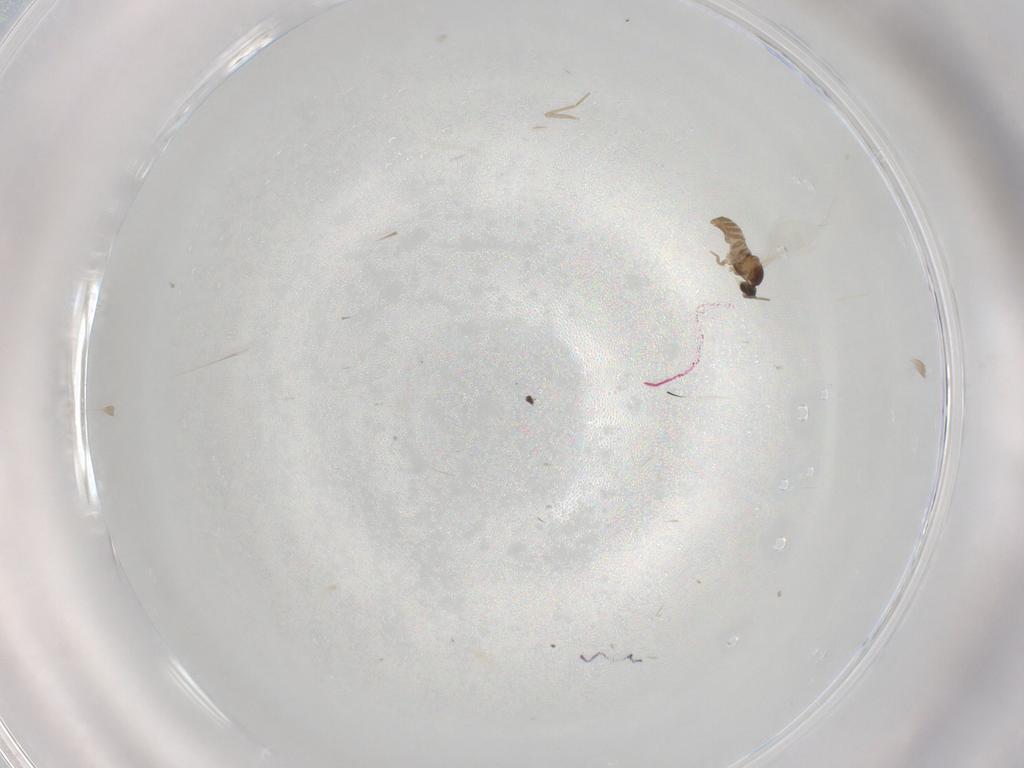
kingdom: Animalia
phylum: Arthropoda
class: Insecta
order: Diptera
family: Cecidomyiidae
